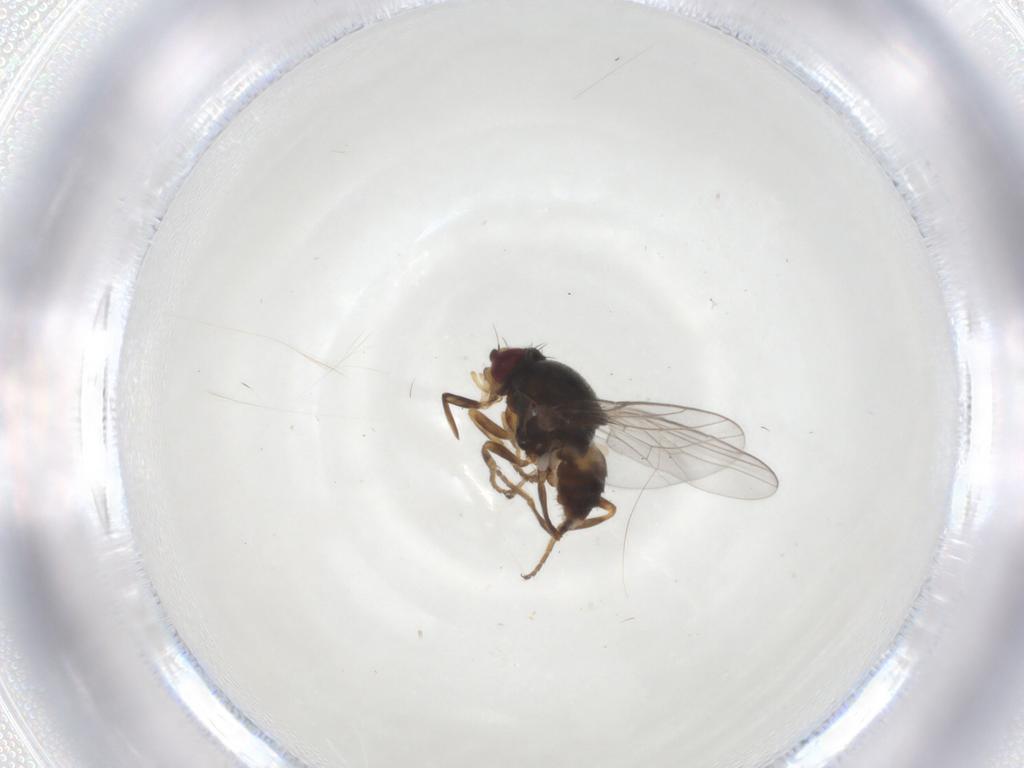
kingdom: Animalia
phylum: Arthropoda
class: Insecta
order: Diptera
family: Chloropidae
